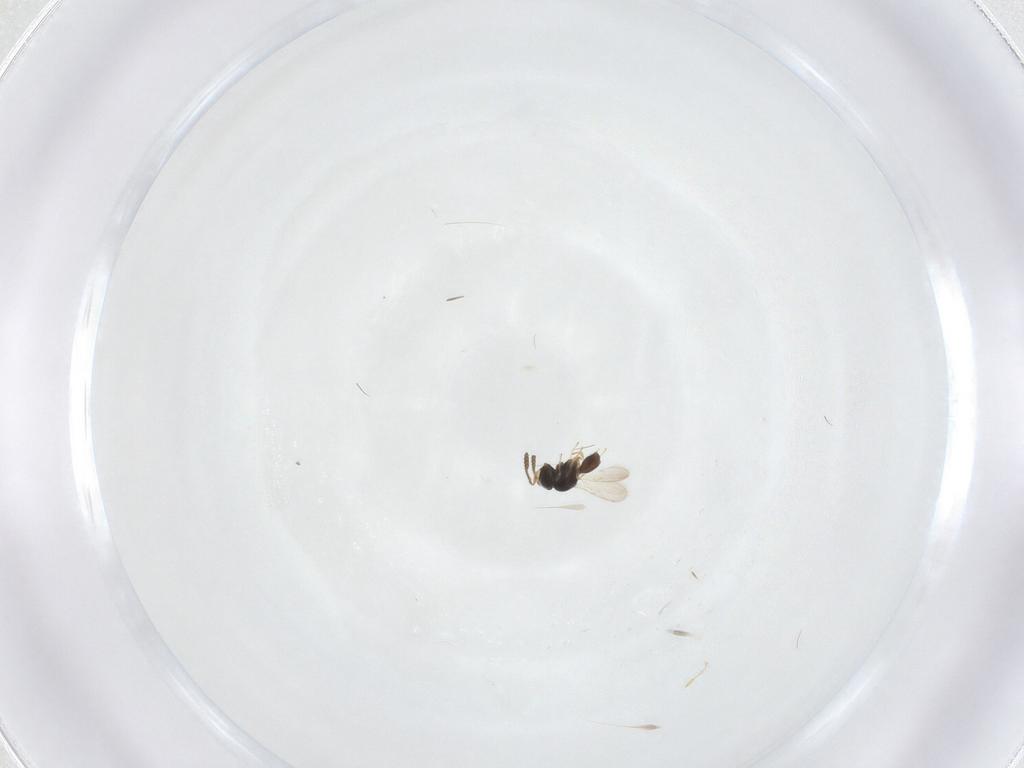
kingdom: Animalia
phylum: Arthropoda
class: Insecta
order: Hymenoptera
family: Scelionidae
